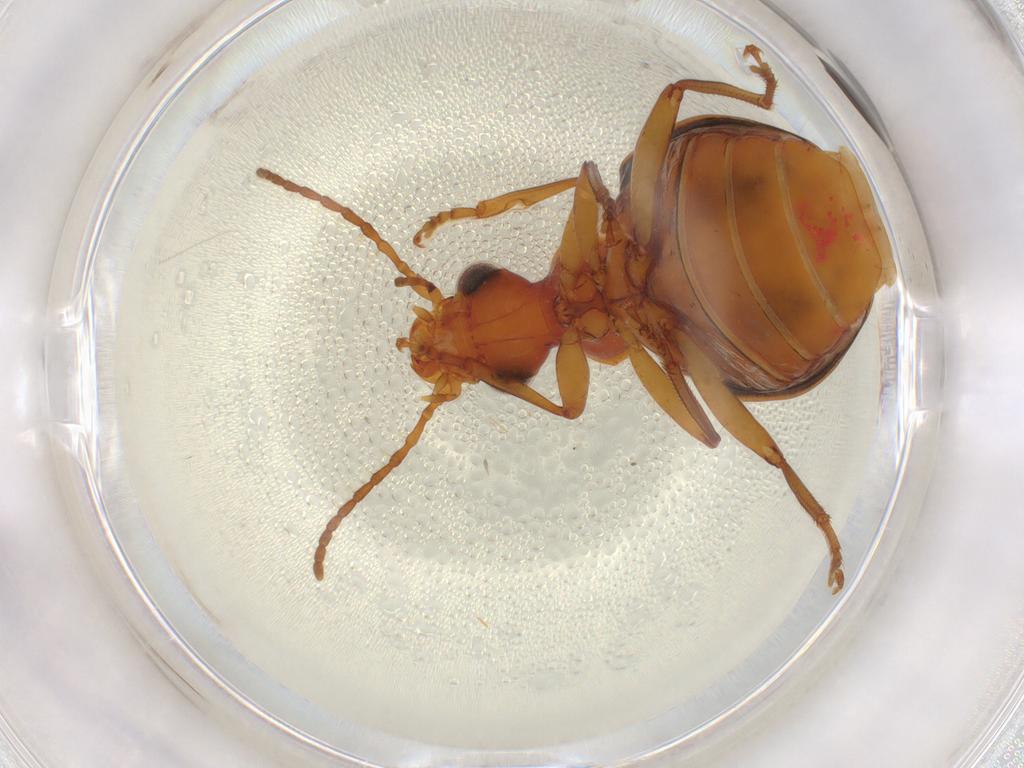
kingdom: Animalia
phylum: Arthropoda
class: Insecta
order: Coleoptera
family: Carabidae
